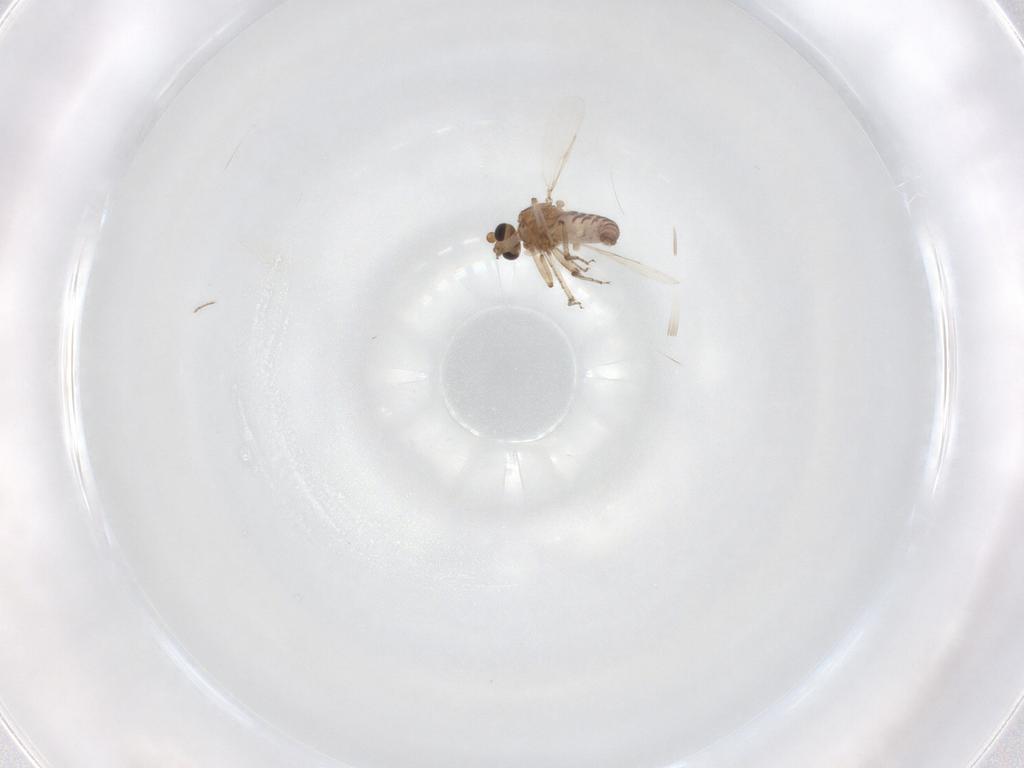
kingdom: Animalia
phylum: Arthropoda
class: Insecta
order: Diptera
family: Ceratopogonidae
